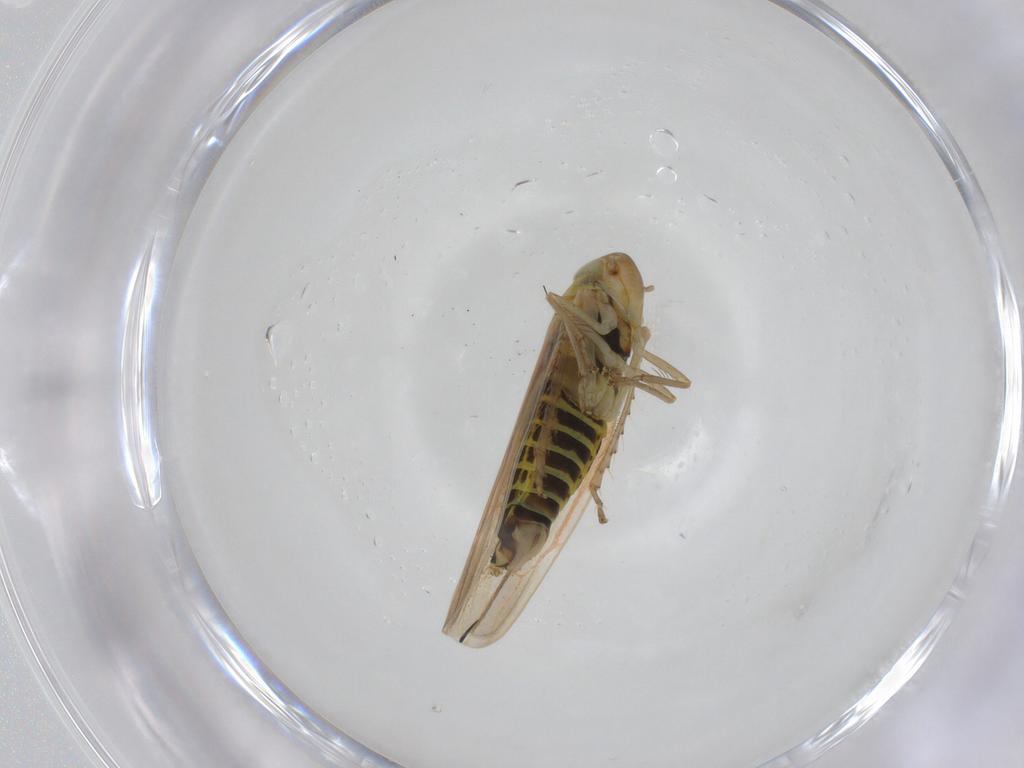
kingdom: Animalia
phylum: Arthropoda
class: Insecta
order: Hemiptera
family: Cicadellidae
